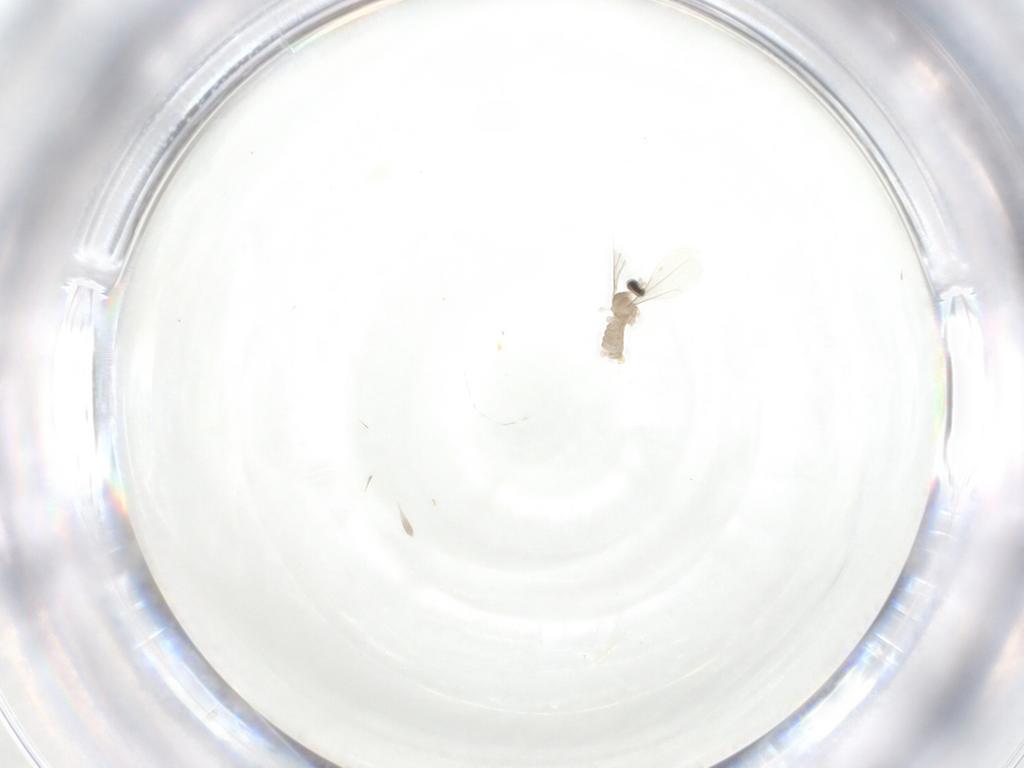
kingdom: Animalia
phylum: Arthropoda
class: Insecta
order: Diptera
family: Cecidomyiidae
